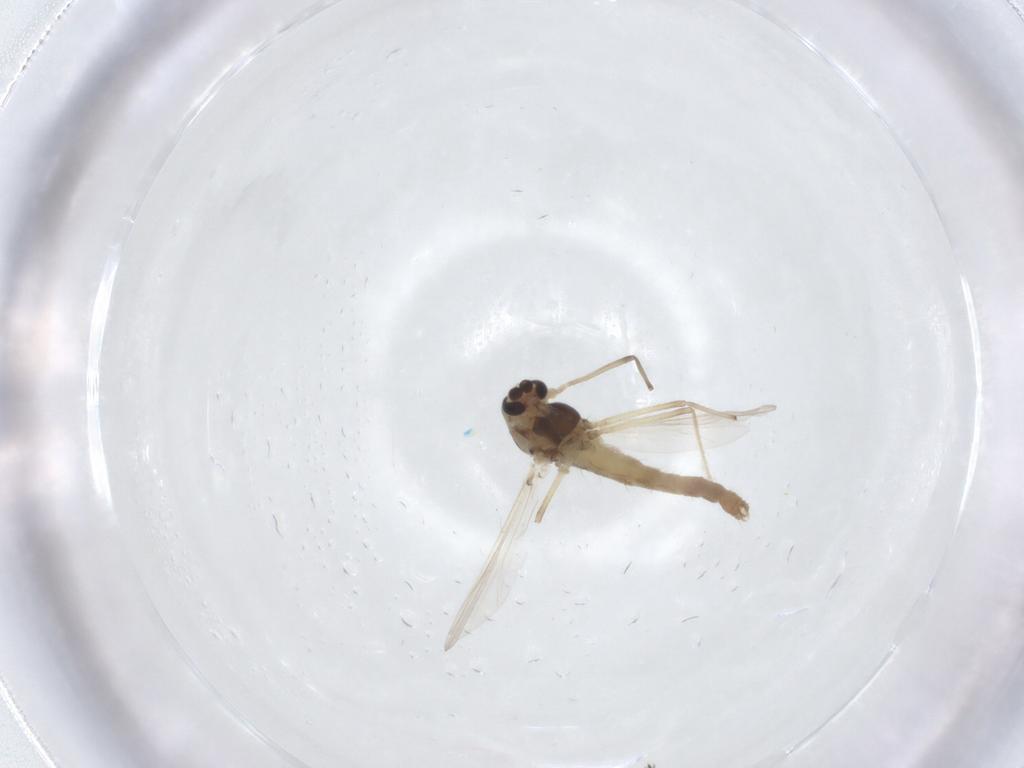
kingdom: Animalia
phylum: Arthropoda
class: Insecta
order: Diptera
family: Chironomidae
